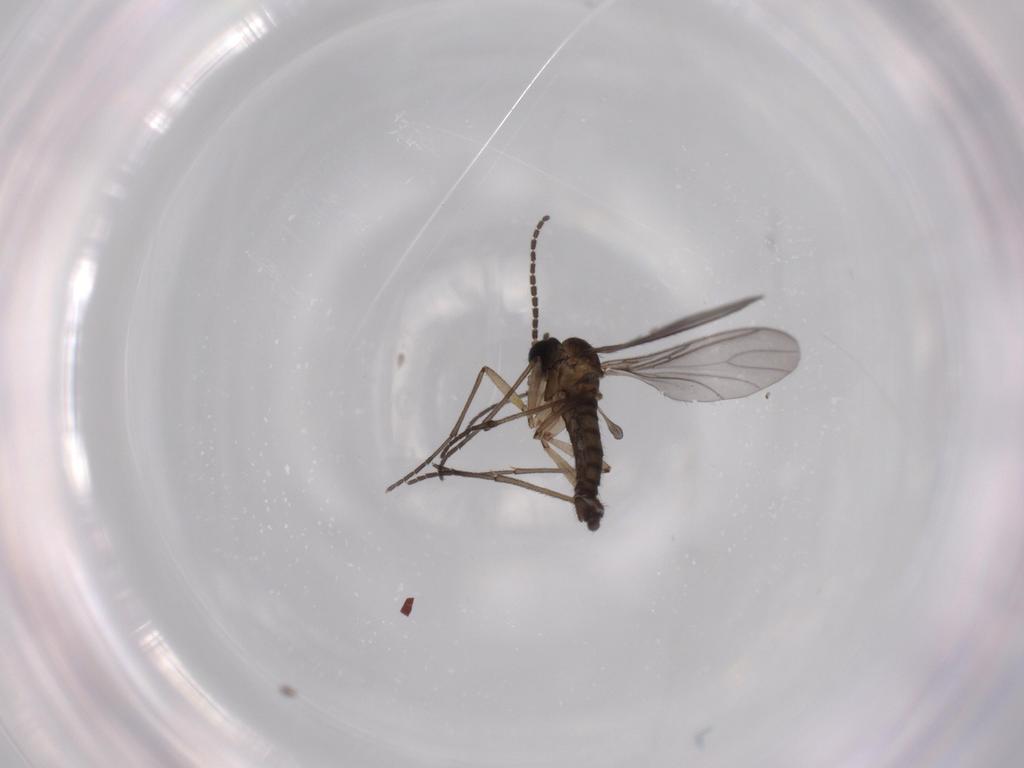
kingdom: Animalia
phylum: Arthropoda
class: Insecta
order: Diptera
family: Sciaridae
